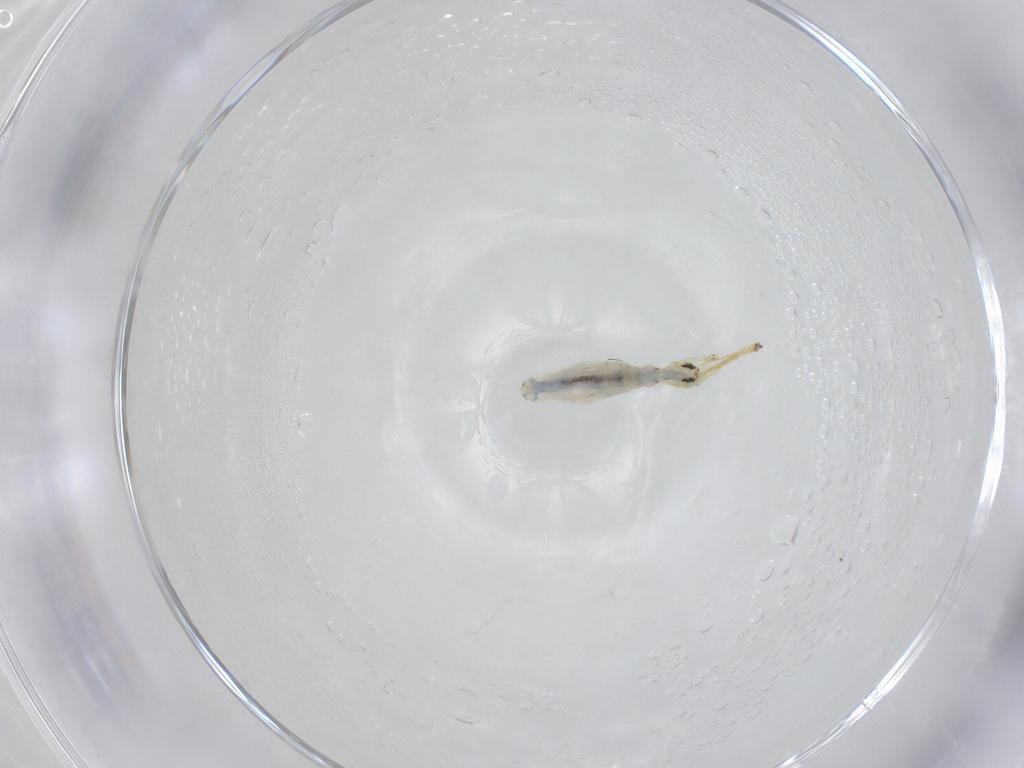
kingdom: Animalia
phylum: Arthropoda
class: Collembola
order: Entomobryomorpha
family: Paronellidae
